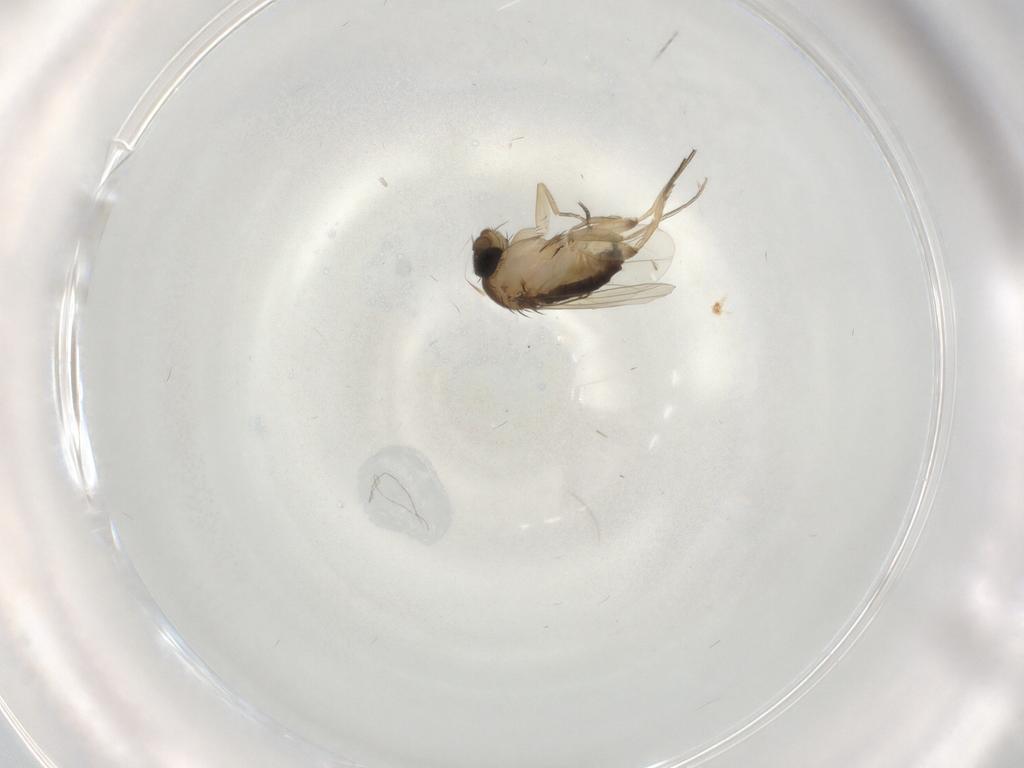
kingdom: Animalia
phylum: Arthropoda
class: Insecta
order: Diptera
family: Phoridae
